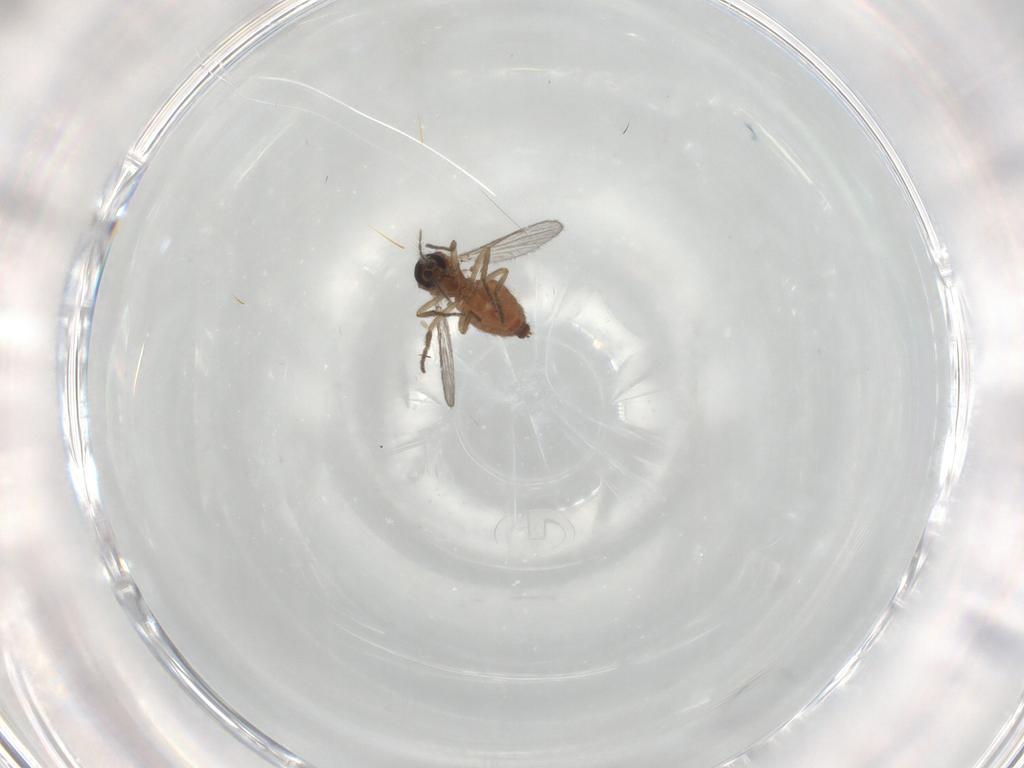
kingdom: Animalia
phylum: Arthropoda
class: Insecta
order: Diptera
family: Ceratopogonidae
